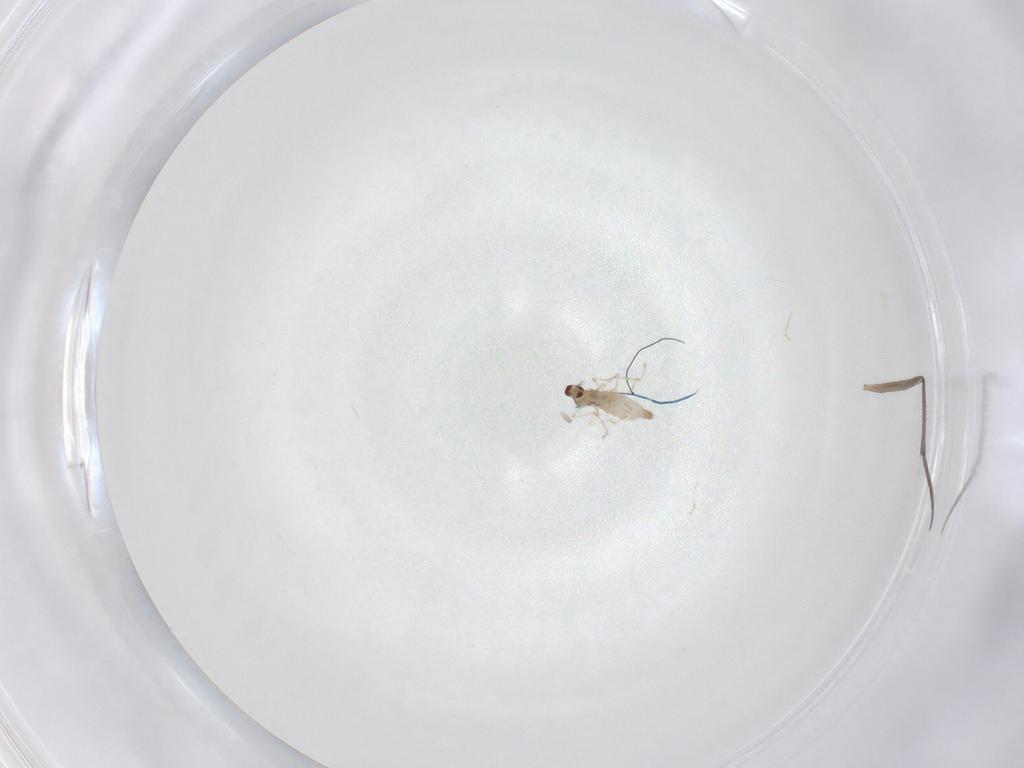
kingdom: Animalia
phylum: Arthropoda
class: Insecta
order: Diptera
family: Cecidomyiidae
